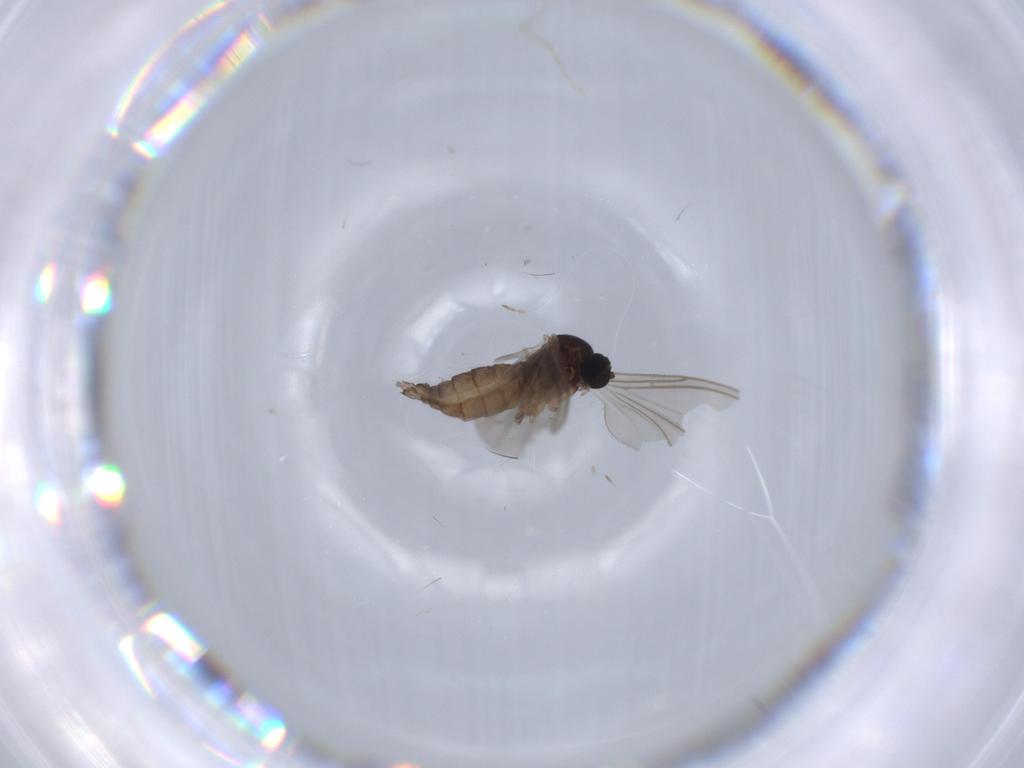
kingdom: Animalia
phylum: Arthropoda
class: Insecta
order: Diptera
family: Sciaridae
